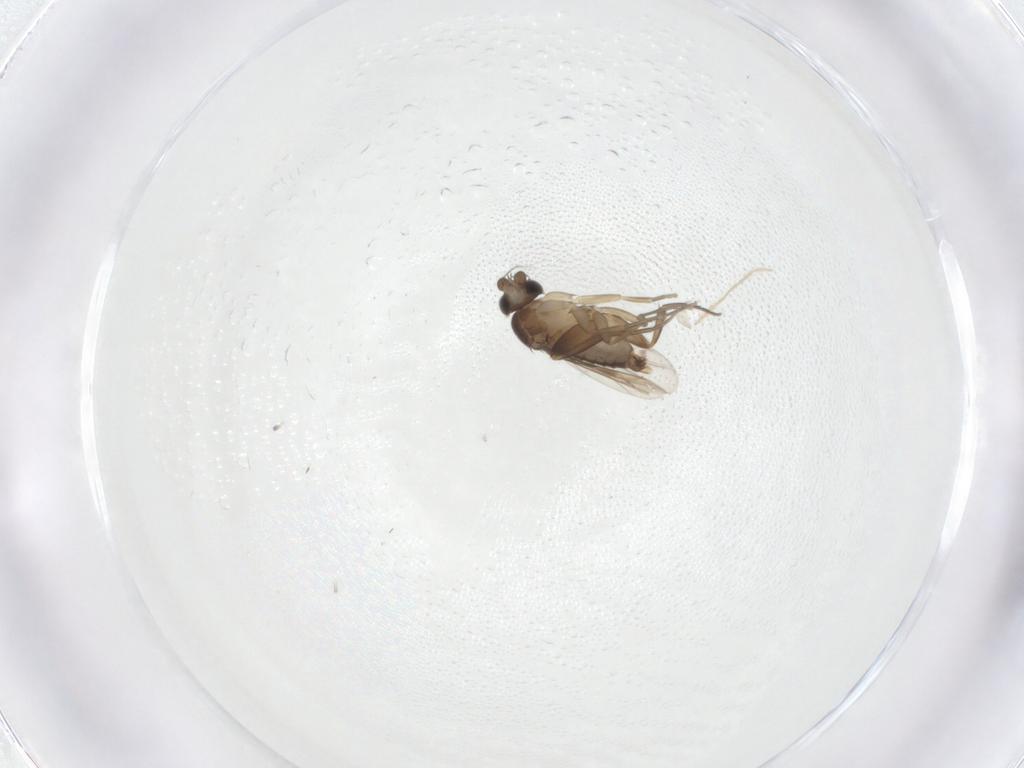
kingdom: Animalia
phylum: Arthropoda
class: Insecta
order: Diptera
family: Phoridae
